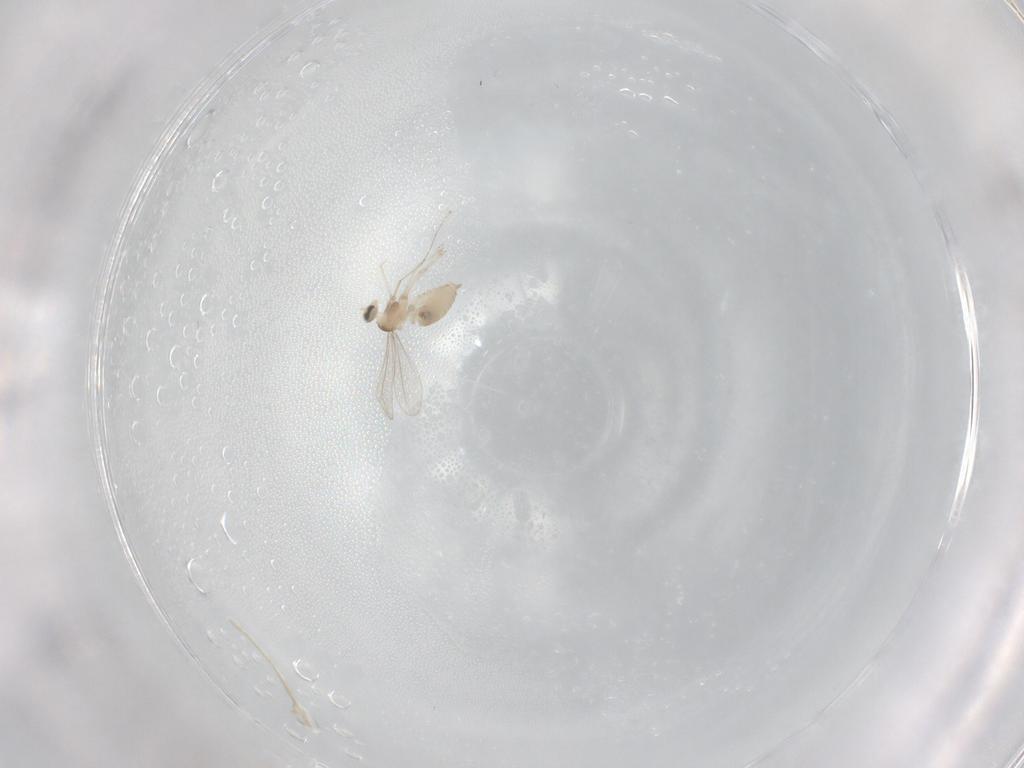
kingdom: Animalia
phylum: Arthropoda
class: Insecta
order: Diptera
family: Cecidomyiidae
